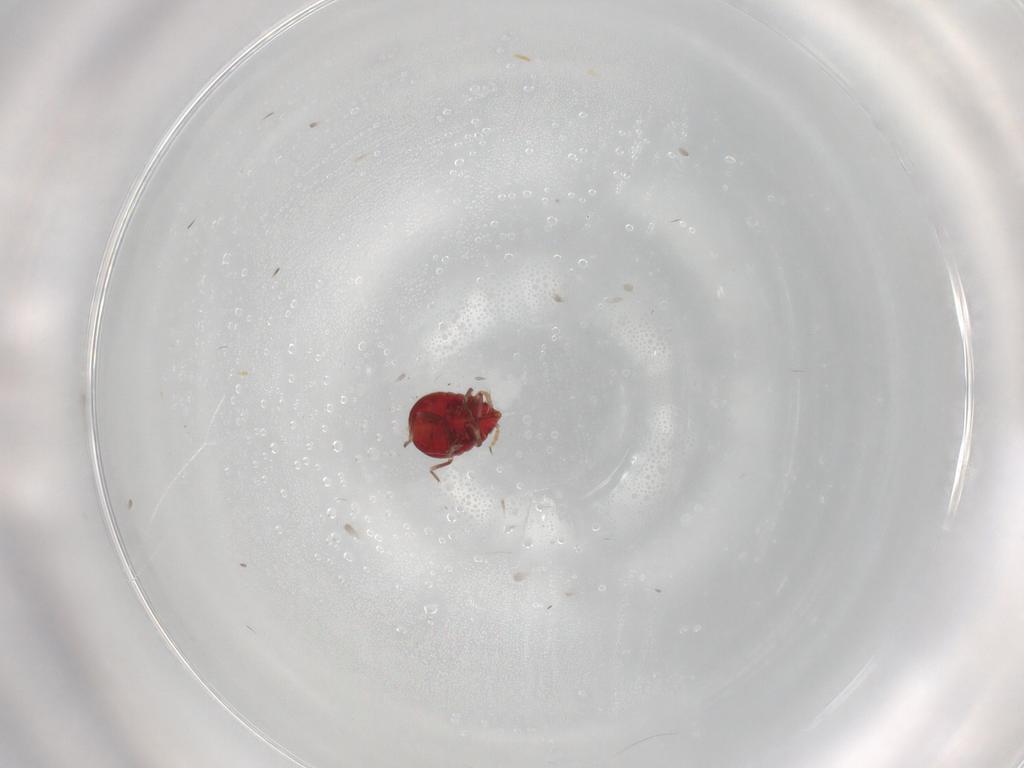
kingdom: Animalia
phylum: Arthropoda
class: Insecta
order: Hemiptera
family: Anthocoridae
